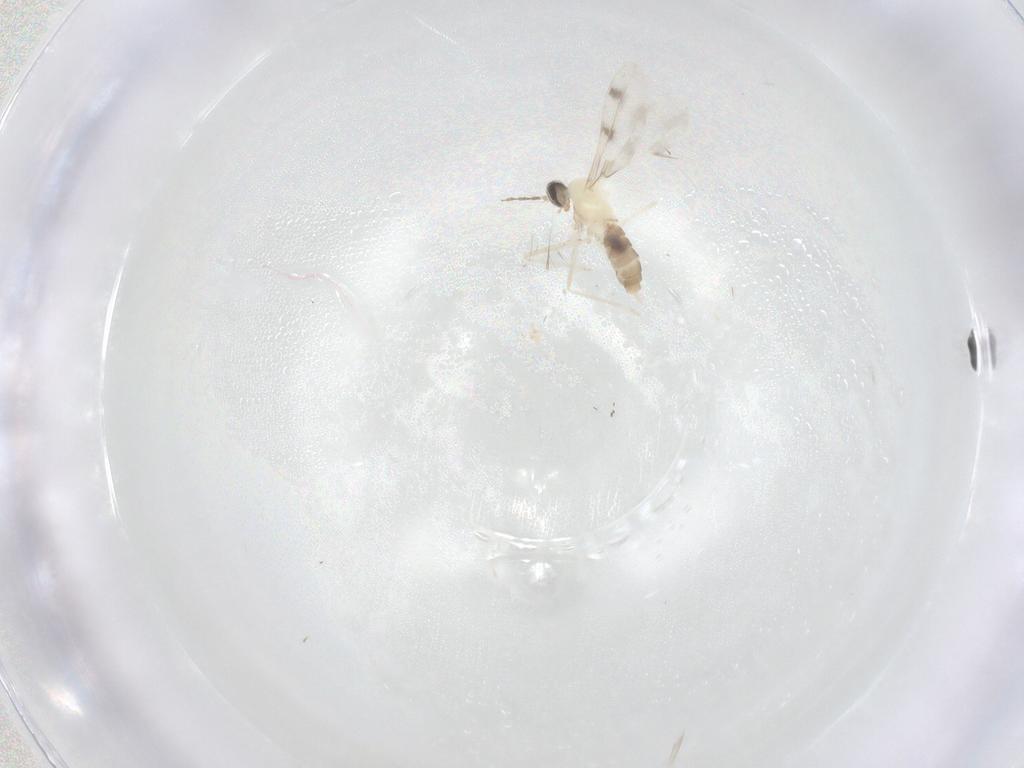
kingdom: Animalia
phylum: Arthropoda
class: Insecta
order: Diptera
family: Cecidomyiidae
